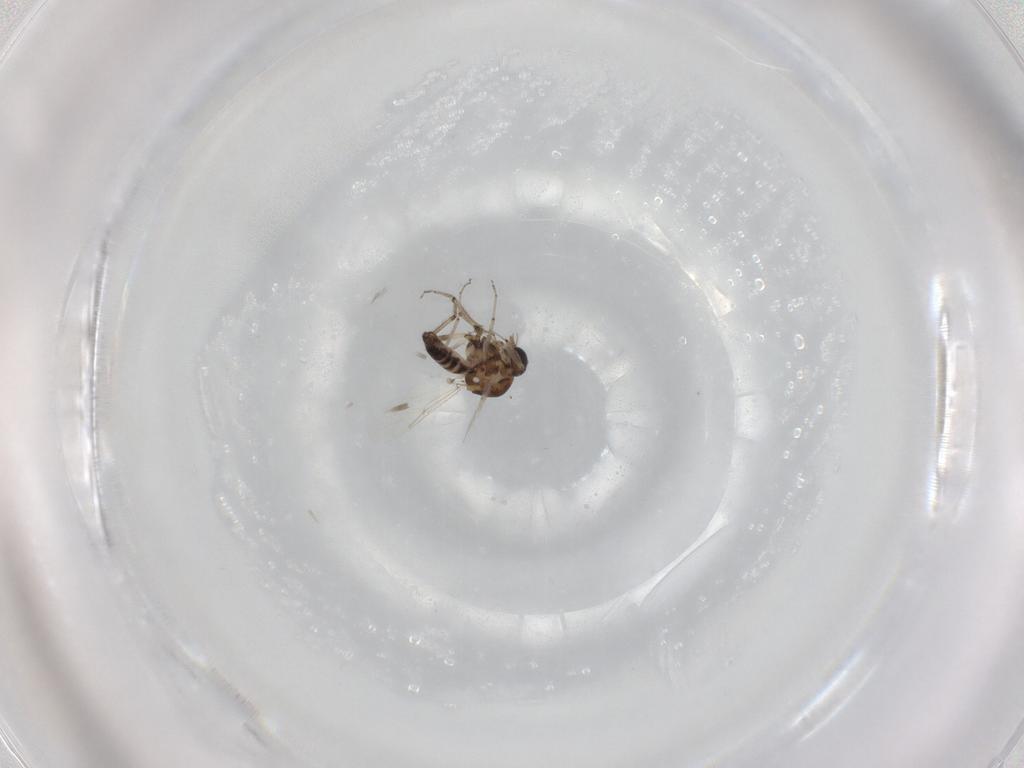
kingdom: Animalia
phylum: Arthropoda
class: Insecta
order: Diptera
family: Ceratopogonidae
